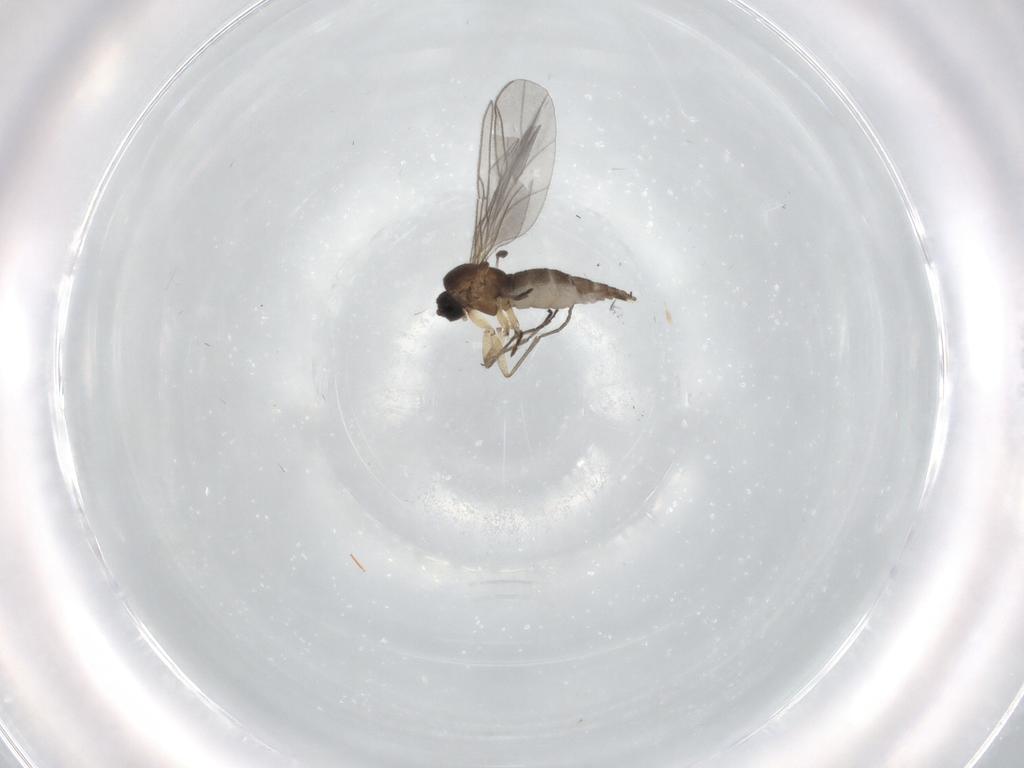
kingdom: Animalia
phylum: Arthropoda
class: Insecta
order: Diptera
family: Sciaridae
